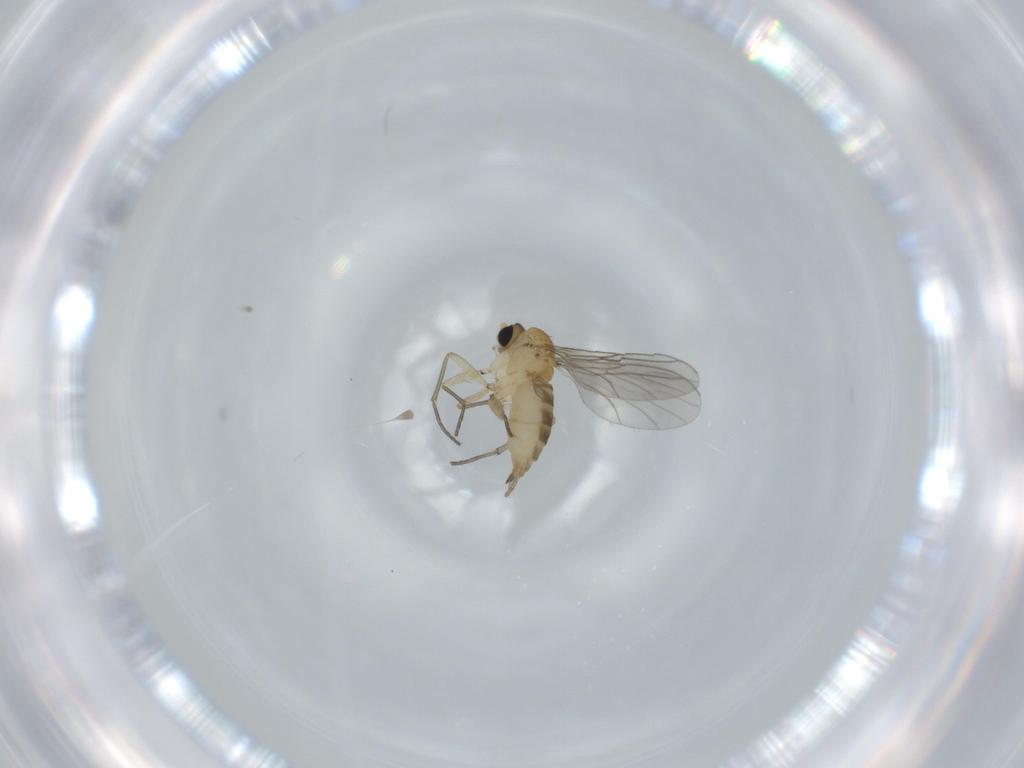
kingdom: Animalia
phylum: Arthropoda
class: Insecta
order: Diptera
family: Sciaridae
